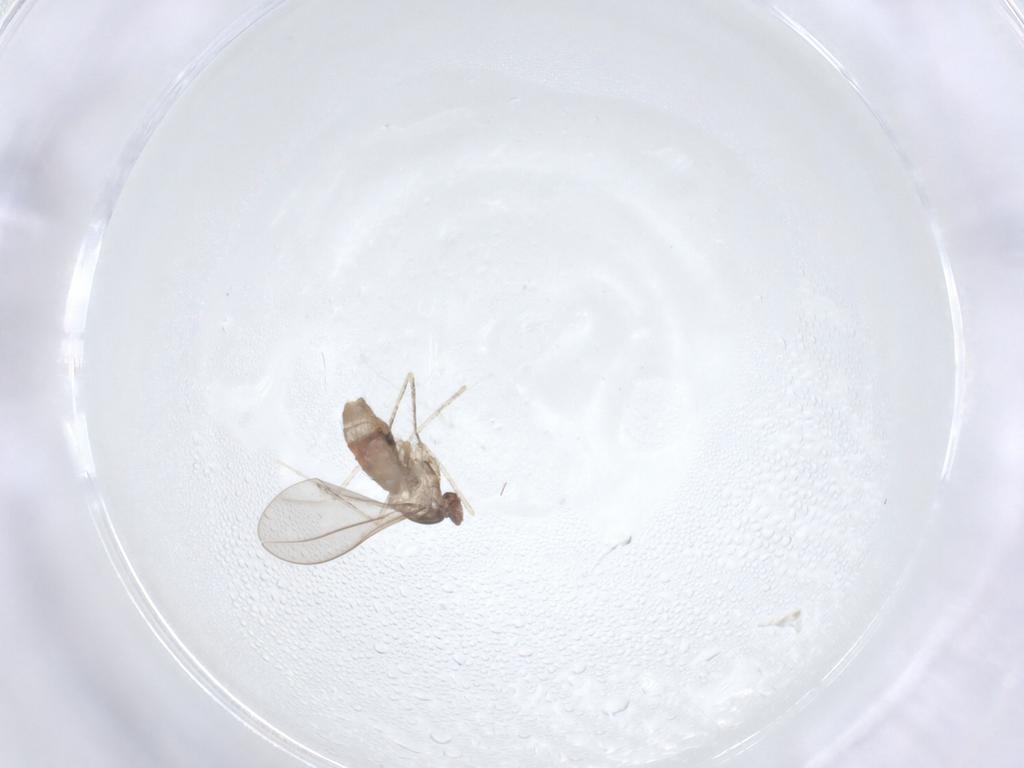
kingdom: Animalia
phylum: Arthropoda
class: Insecta
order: Diptera
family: Cecidomyiidae
